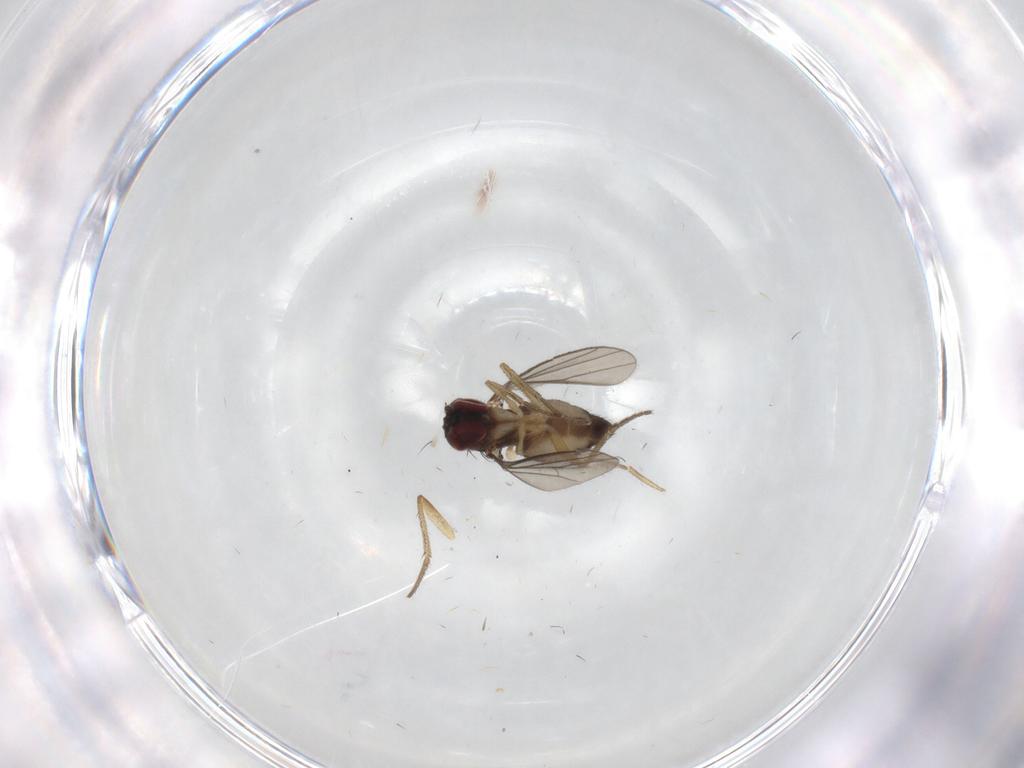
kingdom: Animalia
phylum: Arthropoda
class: Insecta
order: Diptera
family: Dolichopodidae
